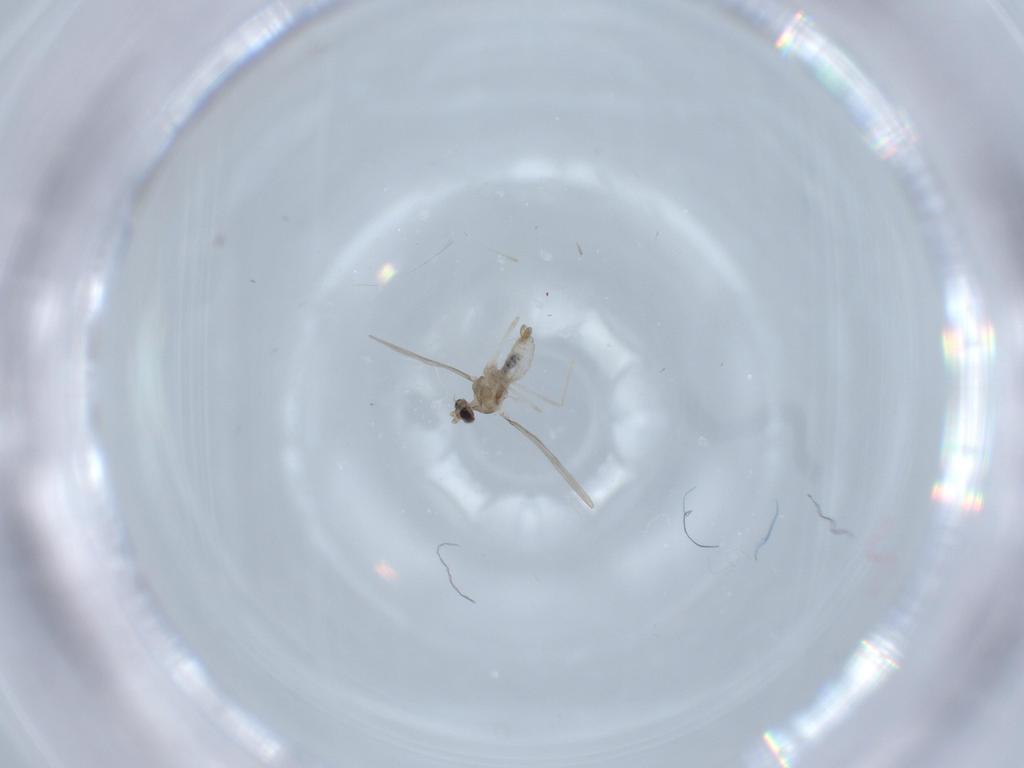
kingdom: Animalia
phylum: Arthropoda
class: Insecta
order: Diptera
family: Cecidomyiidae
